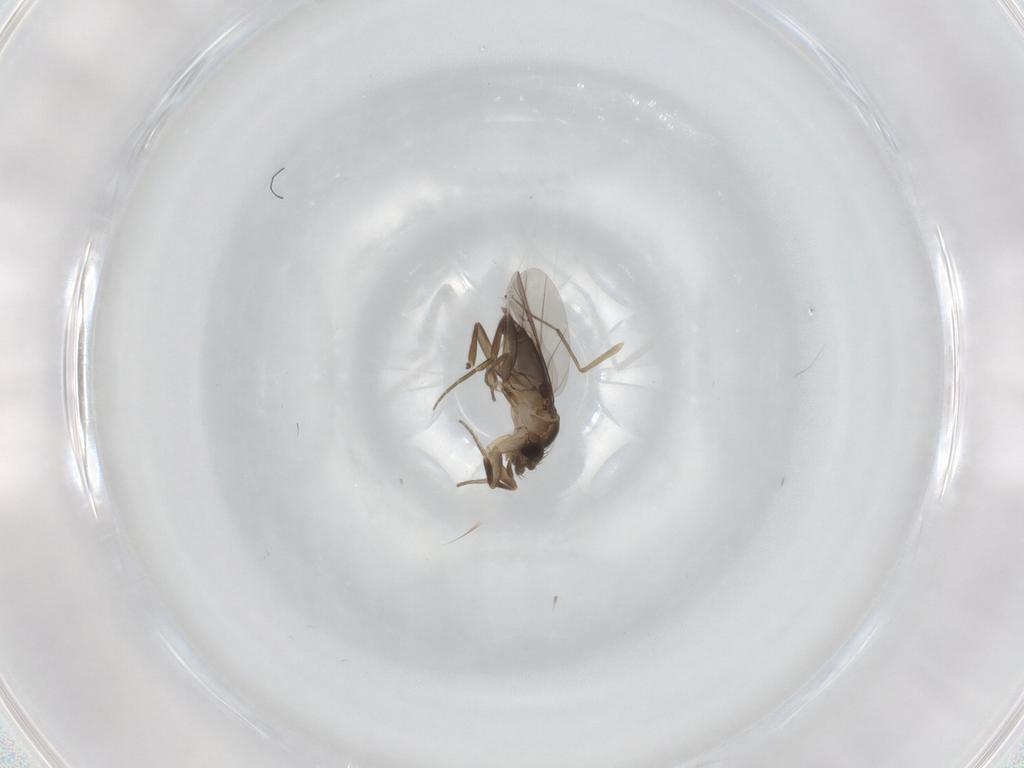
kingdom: Animalia
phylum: Arthropoda
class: Insecta
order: Diptera
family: Phoridae
